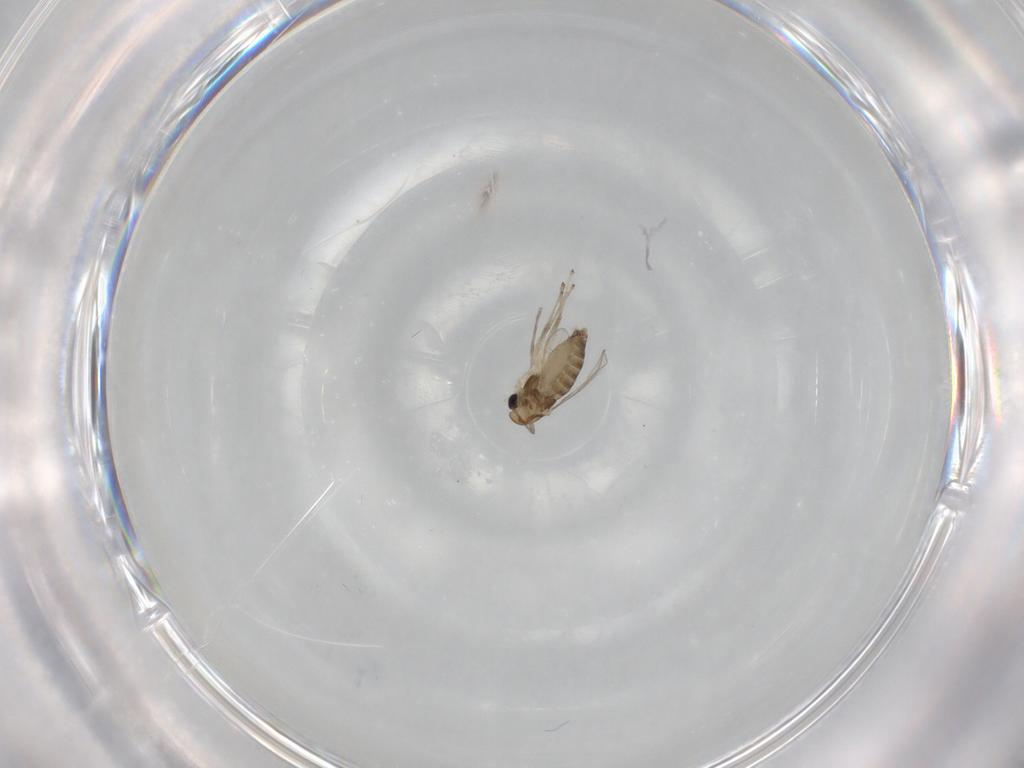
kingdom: Animalia
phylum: Arthropoda
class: Insecta
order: Diptera
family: Chironomidae
